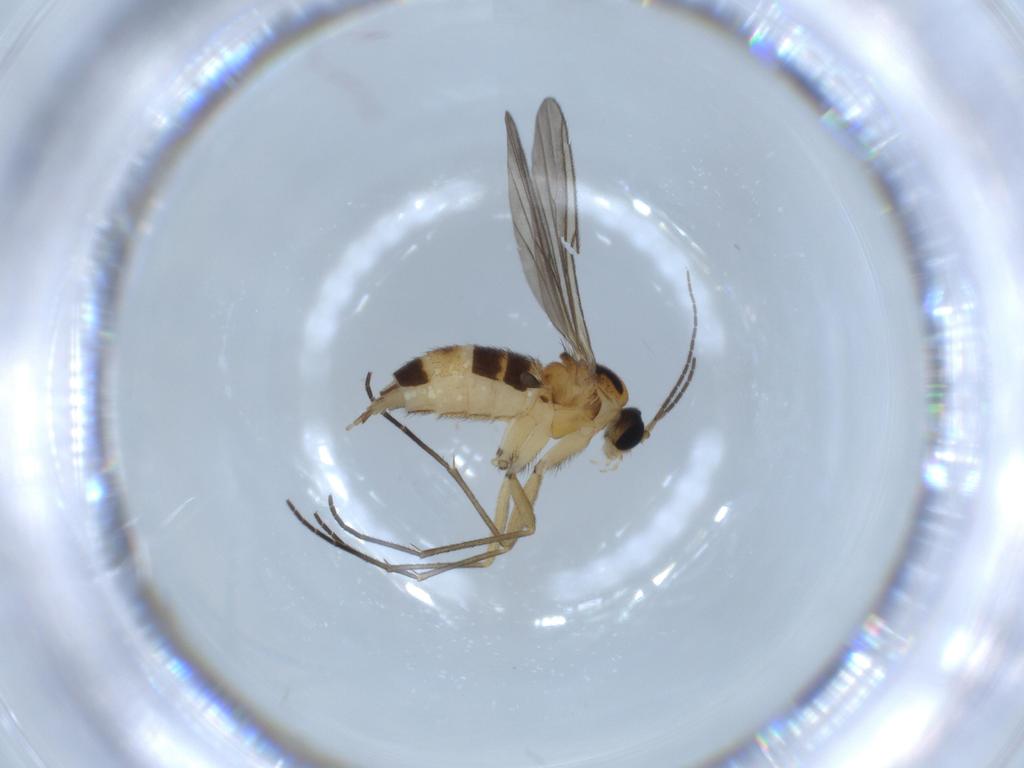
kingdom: Animalia
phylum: Arthropoda
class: Insecta
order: Diptera
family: Sciaridae
